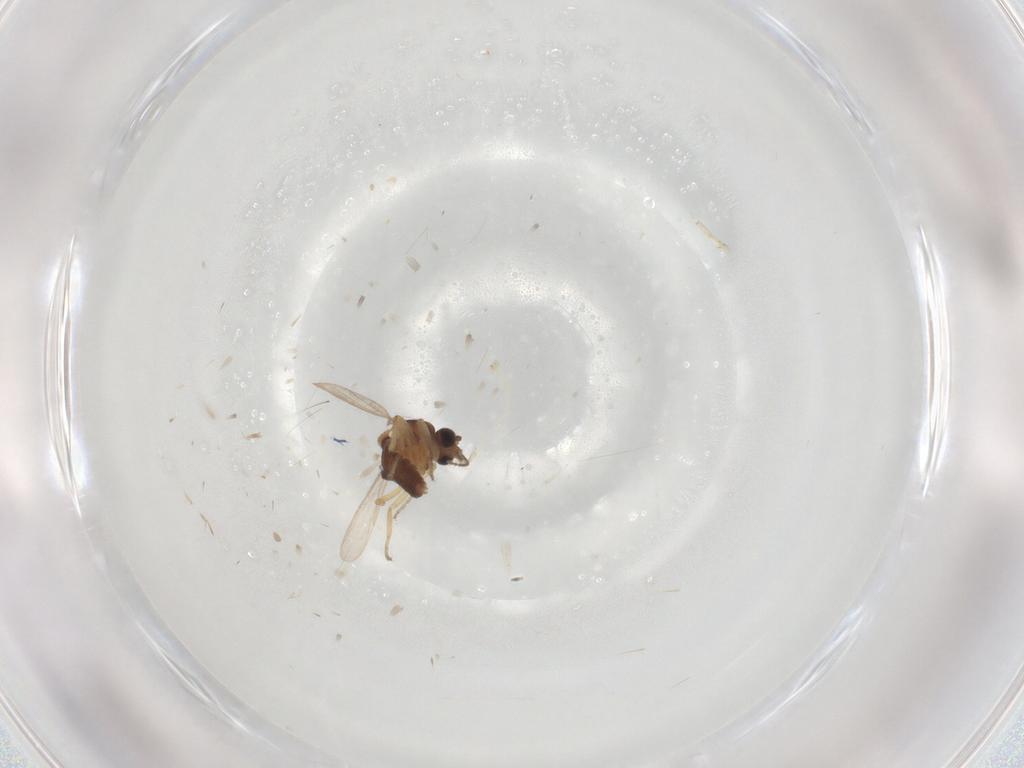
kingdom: Animalia
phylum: Arthropoda
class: Insecta
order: Diptera
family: Ceratopogonidae
